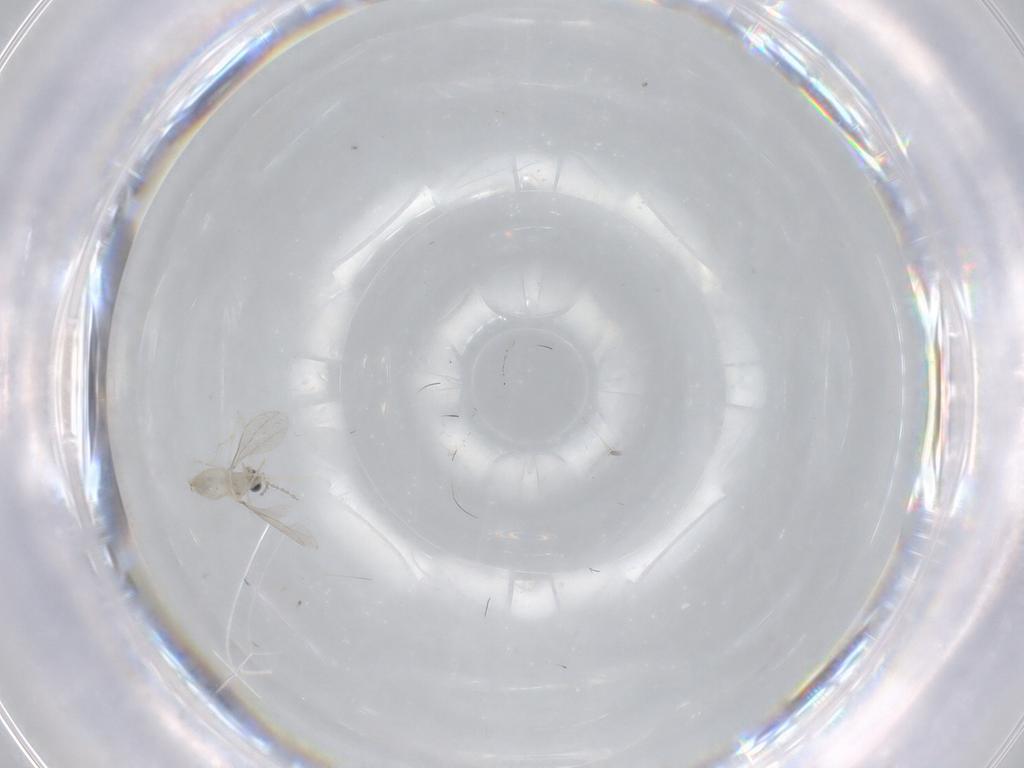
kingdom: Animalia
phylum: Arthropoda
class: Insecta
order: Diptera
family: Cecidomyiidae
